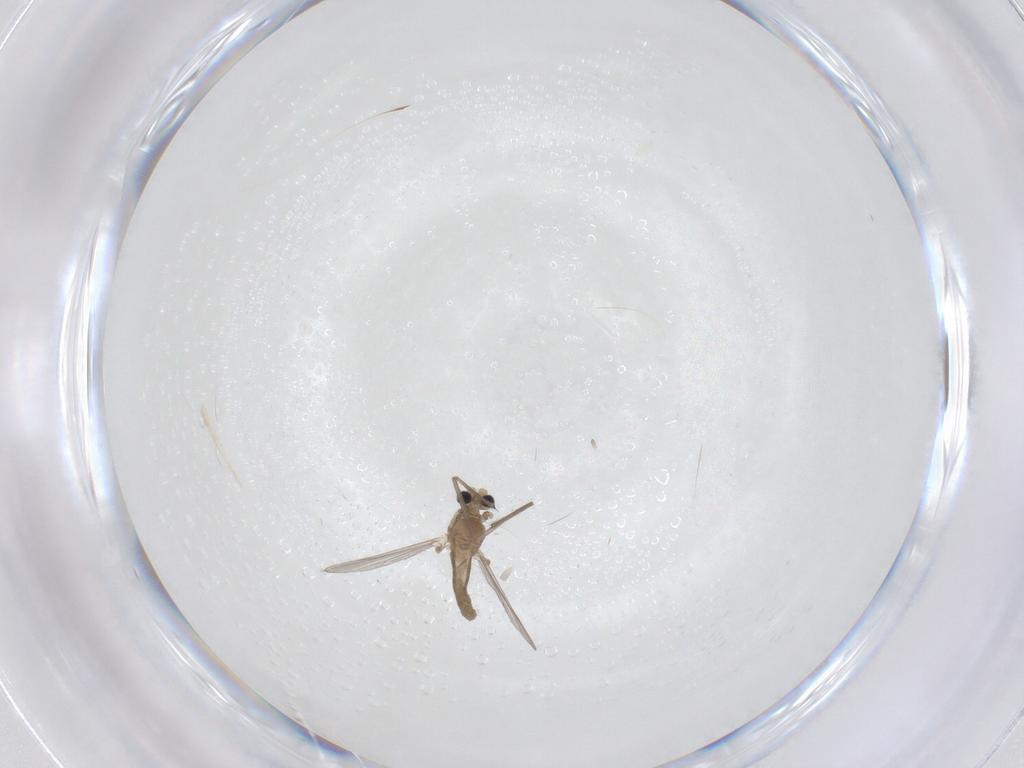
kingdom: Animalia
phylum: Arthropoda
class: Insecta
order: Diptera
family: Chironomidae
